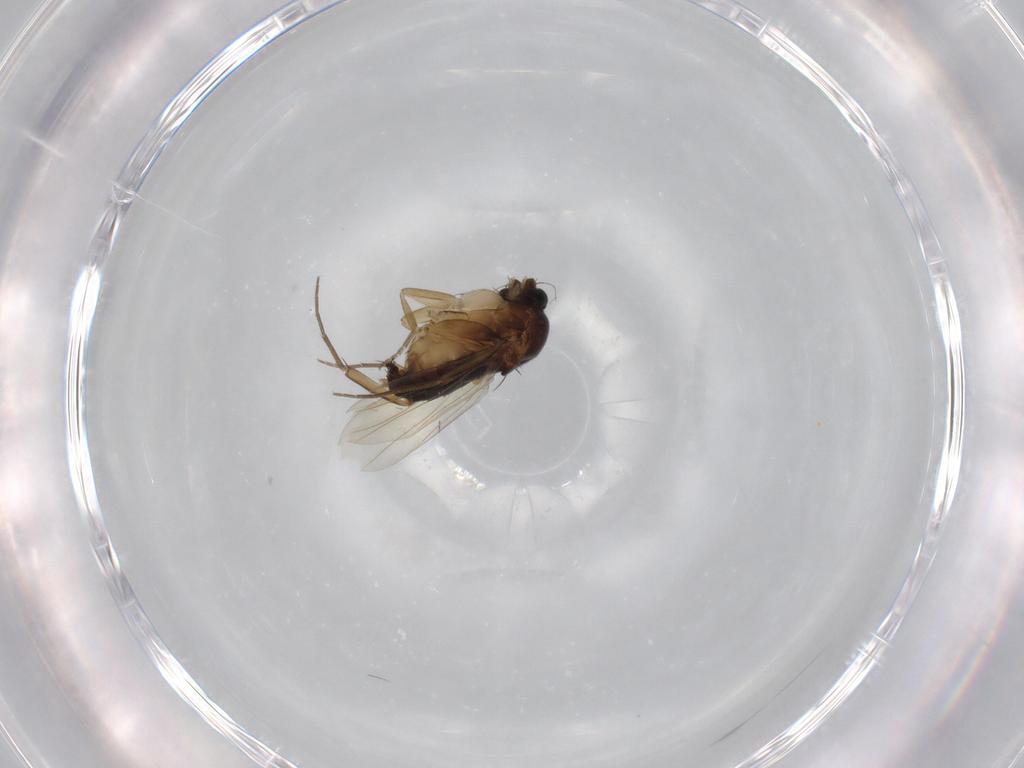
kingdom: Animalia
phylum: Arthropoda
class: Insecta
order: Diptera
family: Phoridae
